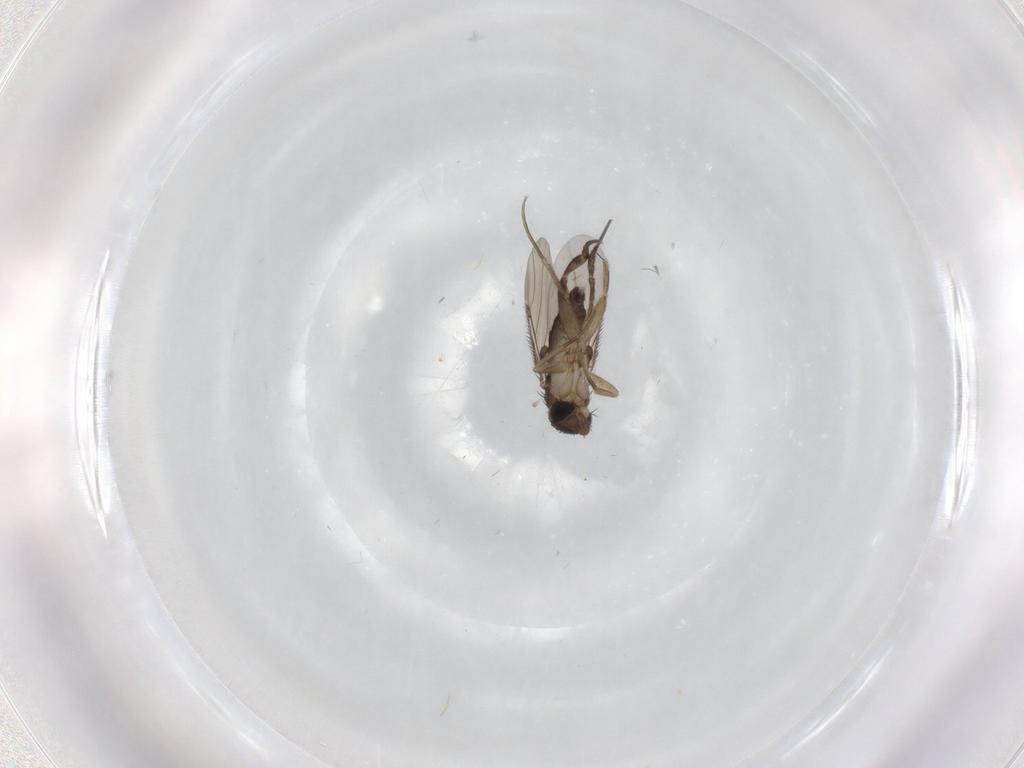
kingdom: Animalia
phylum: Arthropoda
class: Insecta
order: Diptera
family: Phoridae
